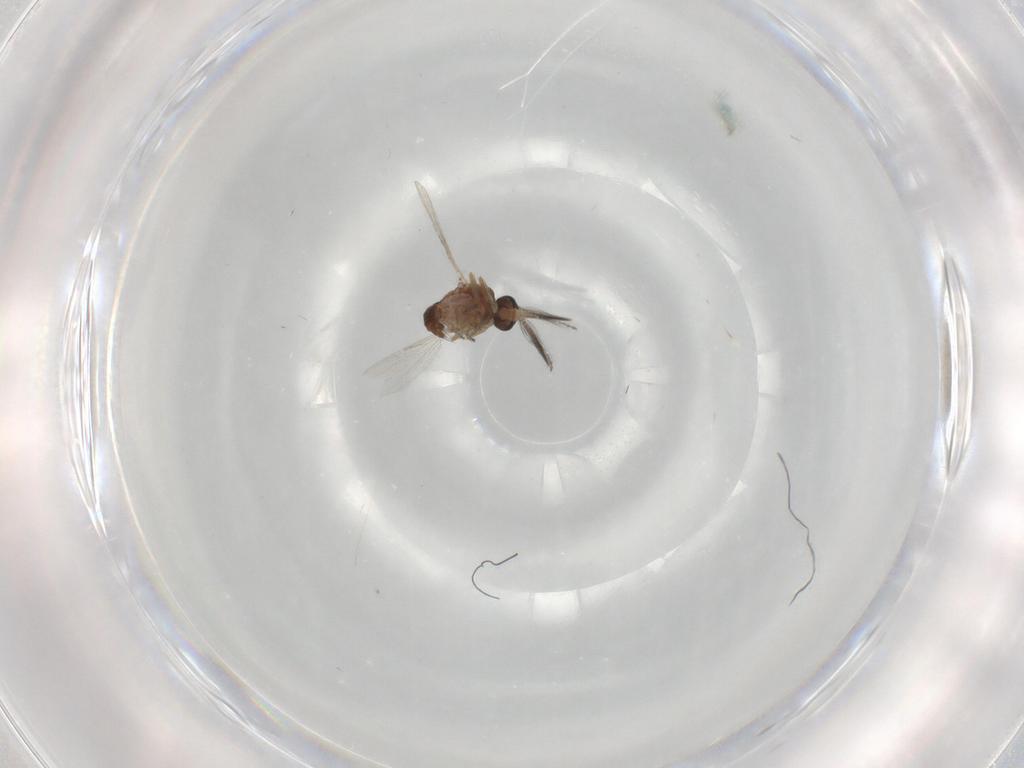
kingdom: Animalia
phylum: Arthropoda
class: Insecta
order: Diptera
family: Ceratopogonidae
